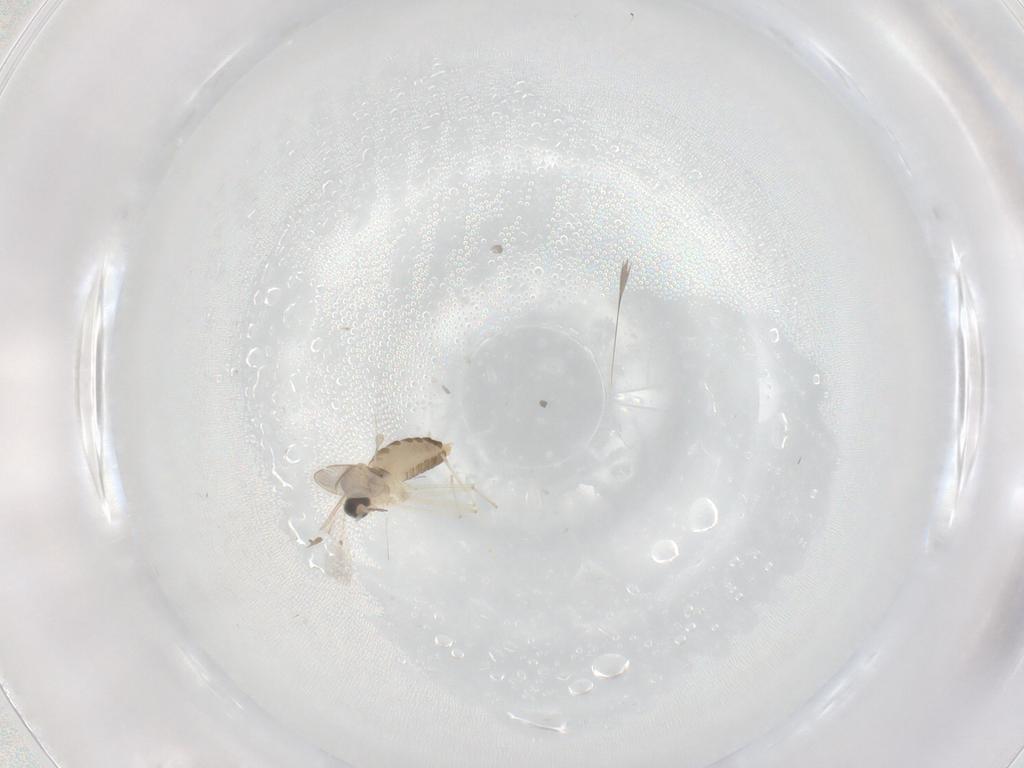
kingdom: Animalia
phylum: Arthropoda
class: Insecta
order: Diptera
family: Cecidomyiidae
